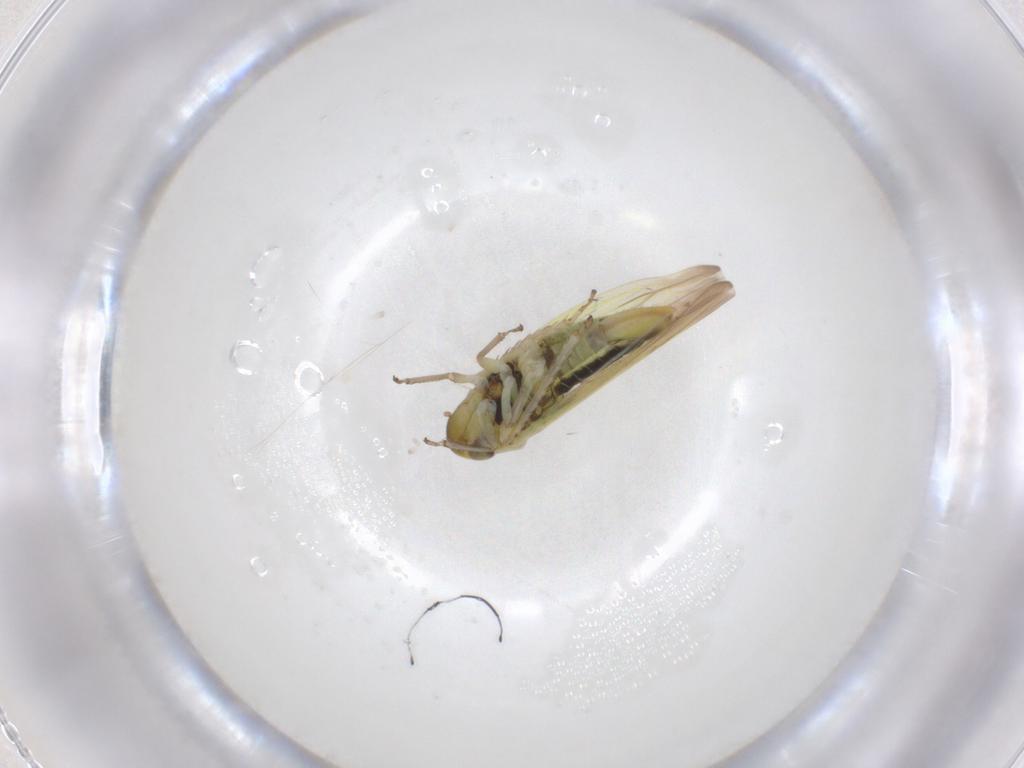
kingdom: Animalia
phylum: Arthropoda
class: Insecta
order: Hemiptera
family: Cicadellidae
